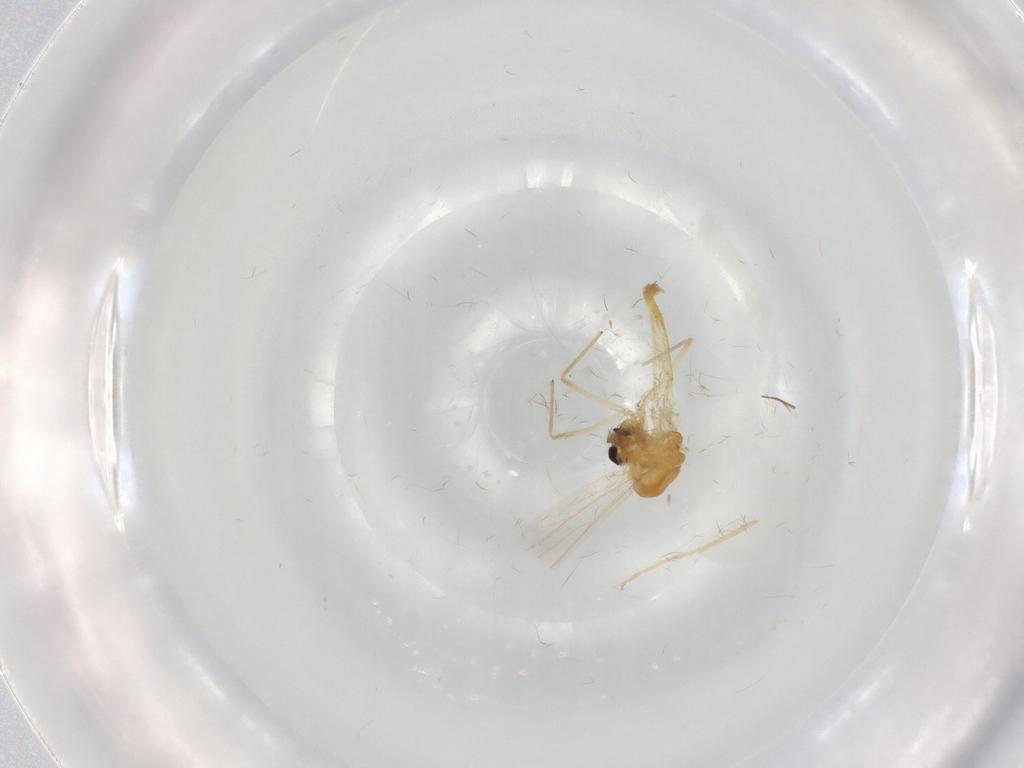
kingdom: Animalia
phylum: Arthropoda
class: Insecta
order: Diptera
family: Chironomidae
